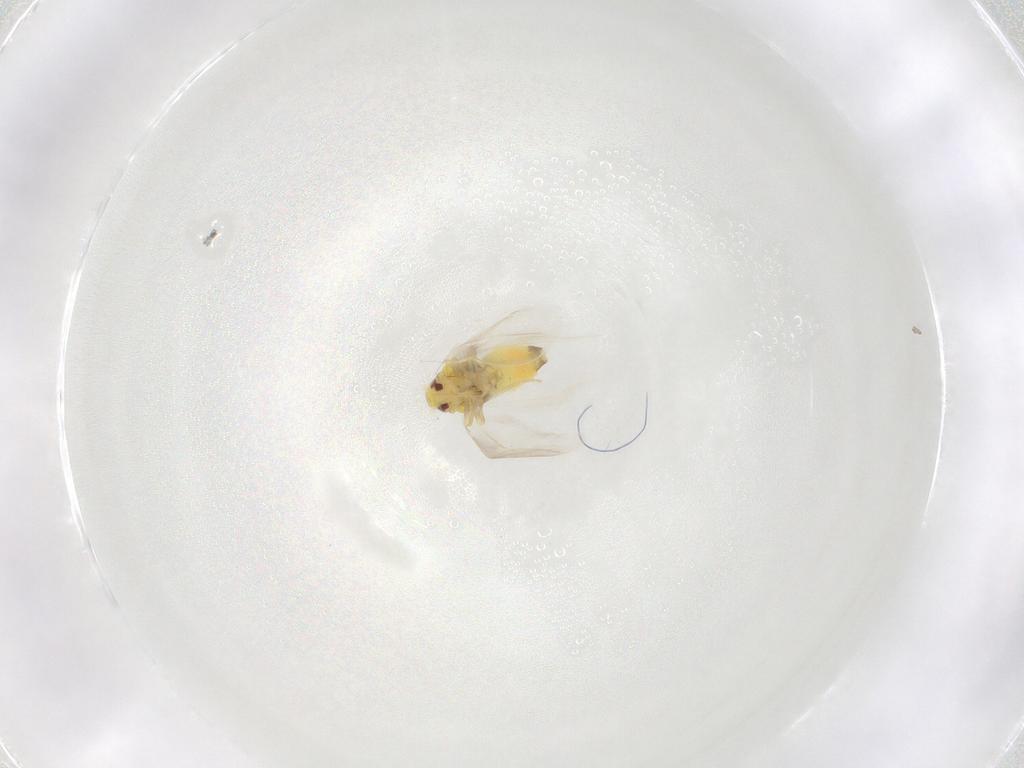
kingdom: Animalia
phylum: Arthropoda
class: Insecta
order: Hemiptera
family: Aleyrodidae
